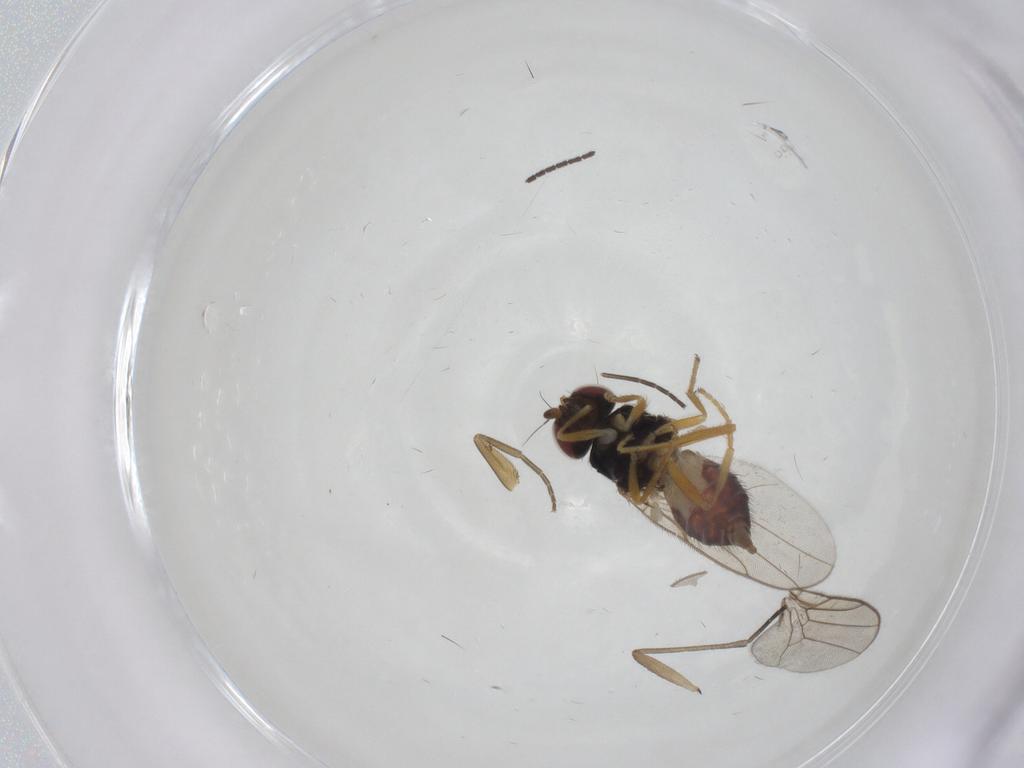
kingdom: Animalia
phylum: Arthropoda
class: Insecta
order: Diptera
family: Chloropidae
